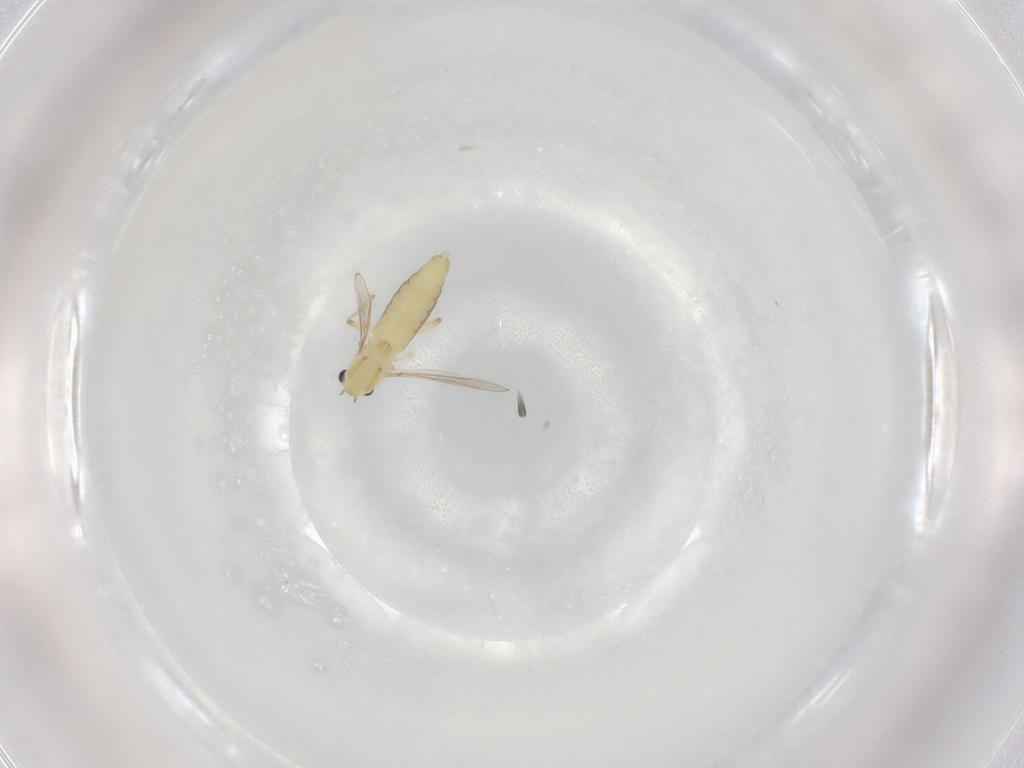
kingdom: Animalia
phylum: Arthropoda
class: Insecta
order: Diptera
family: Chironomidae
